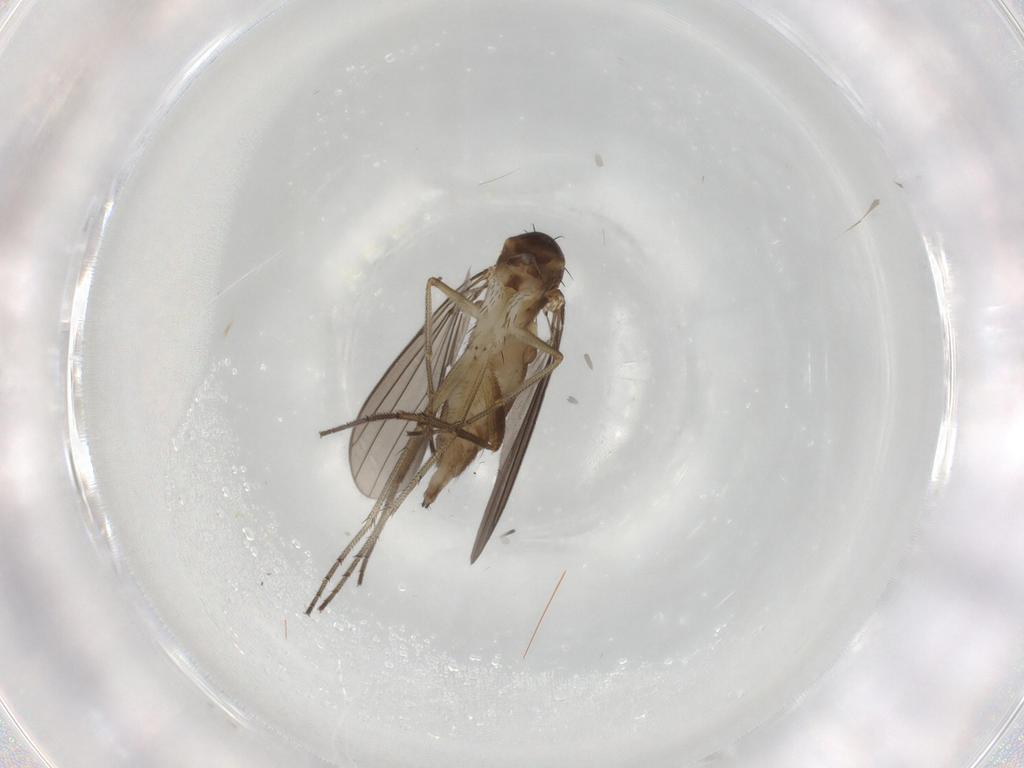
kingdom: Animalia
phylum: Arthropoda
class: Insecta
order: Diptera
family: Dolichopodidae
